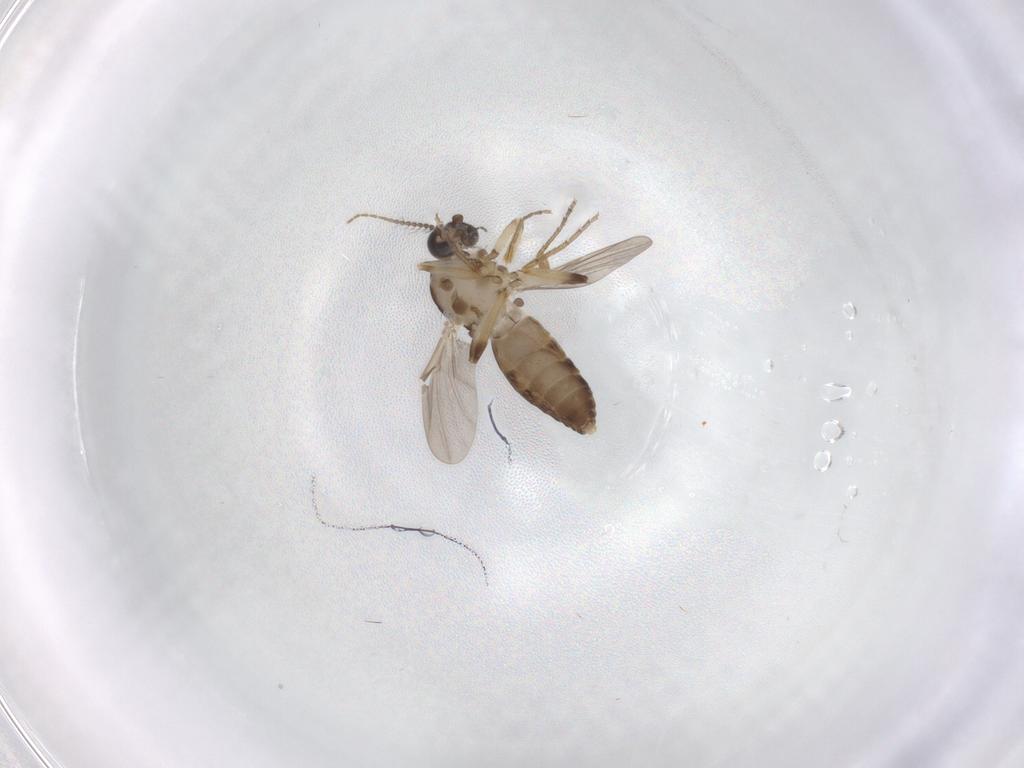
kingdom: Animalia
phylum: Arthropoda
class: Insecta
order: Diptera
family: Ceratopogonidae
